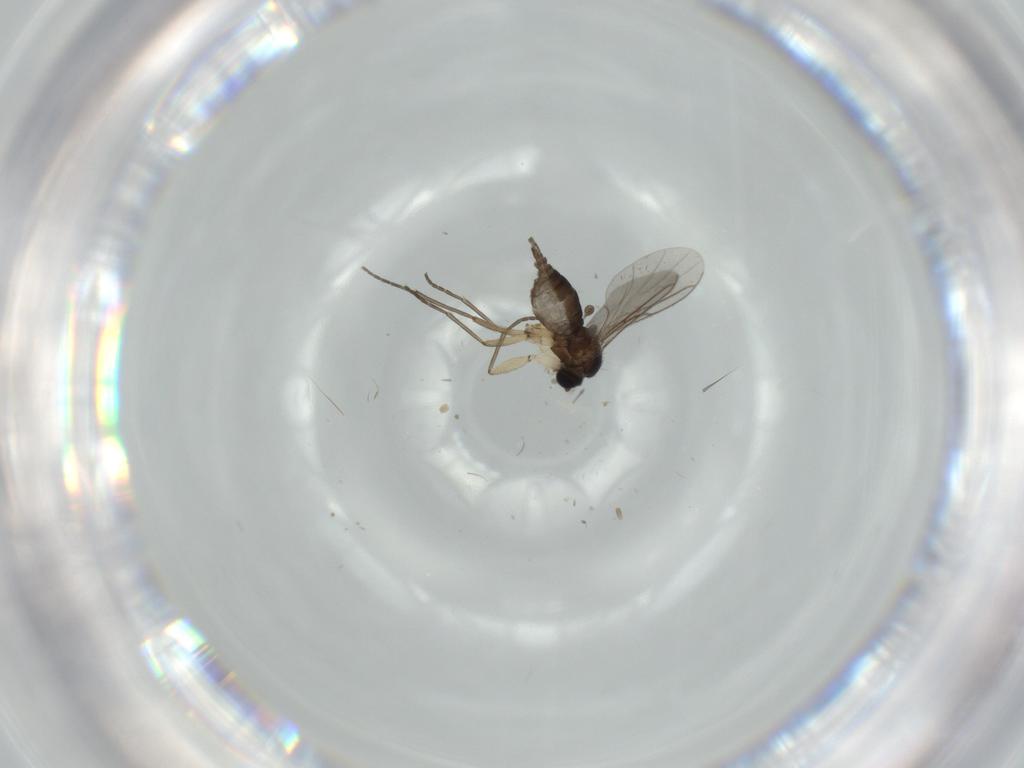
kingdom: Animalia
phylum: Arthropoda
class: Insecta
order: Diptera
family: Sciaridae
